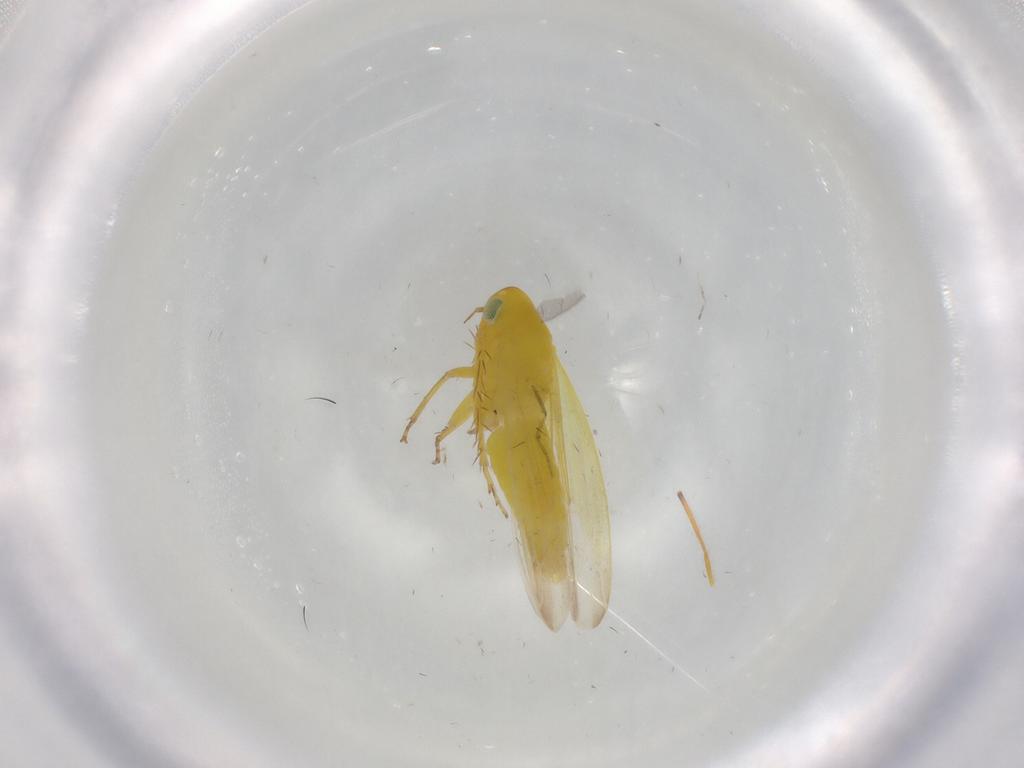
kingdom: Animalia
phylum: Arthropoda
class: Insecta
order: Hemiptera
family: Cicadellidae
